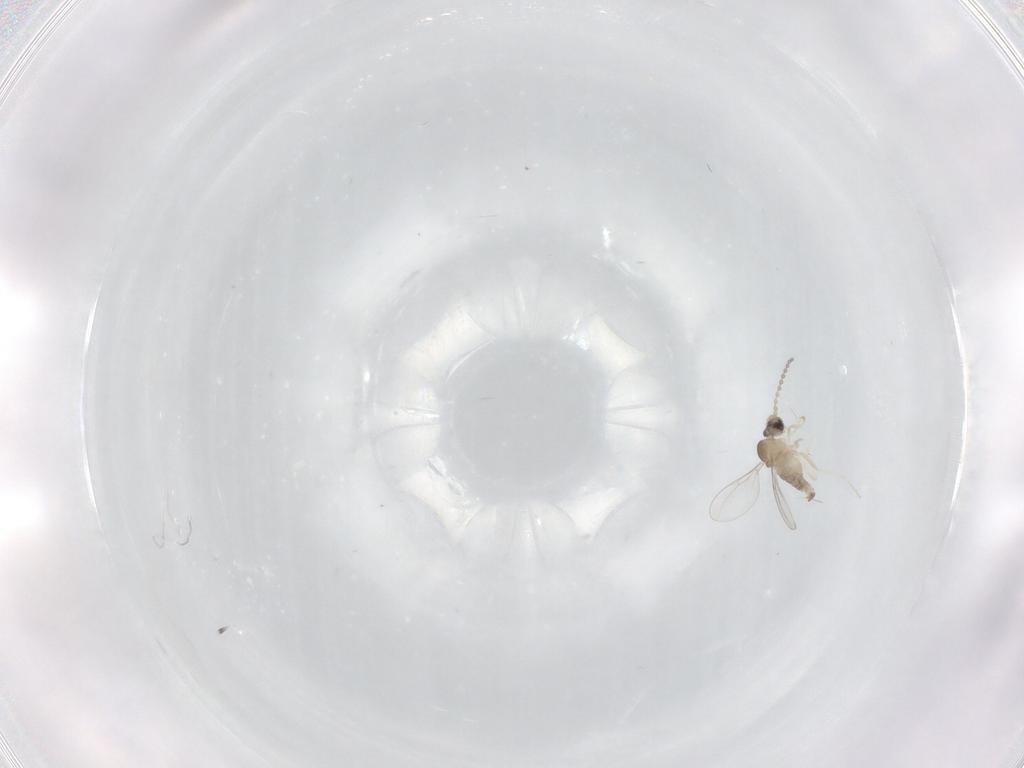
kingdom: Animalia
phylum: Arthropoda
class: Insecta
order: Diptera
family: Cecidomyiidae
